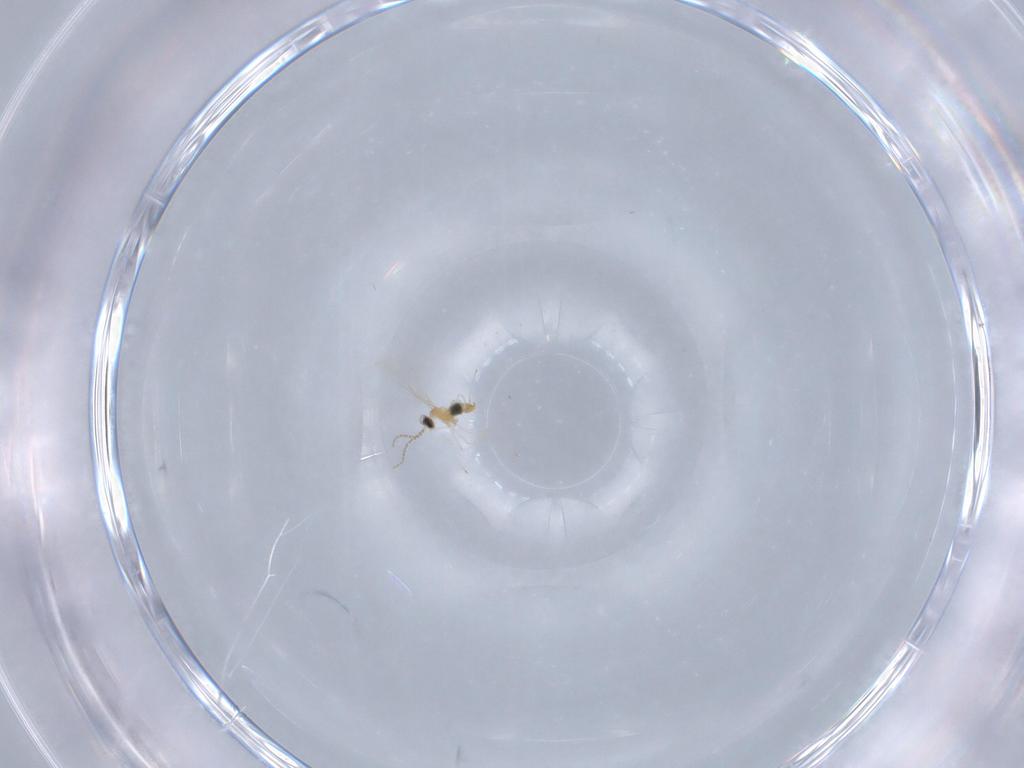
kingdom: Animalia
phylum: Arthropoda
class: Insecta
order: Diptera
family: Cecidomyiidae
